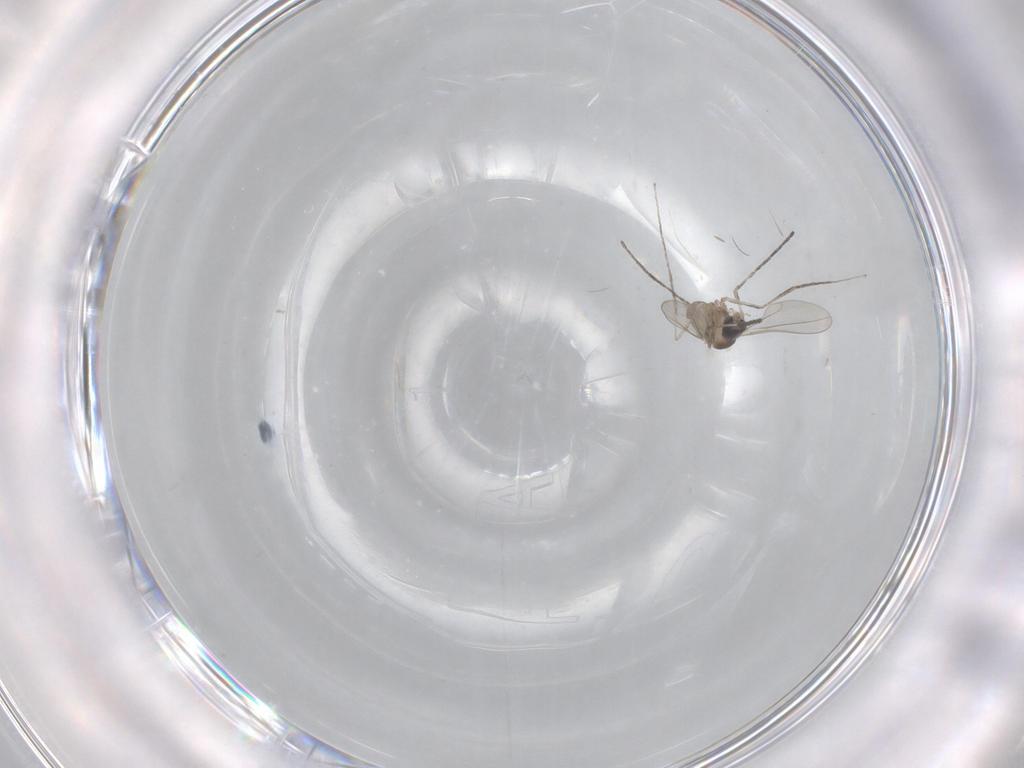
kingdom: Animalia
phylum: Arthropoda
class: Insecta
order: Diptera
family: Cecidomyiidae
